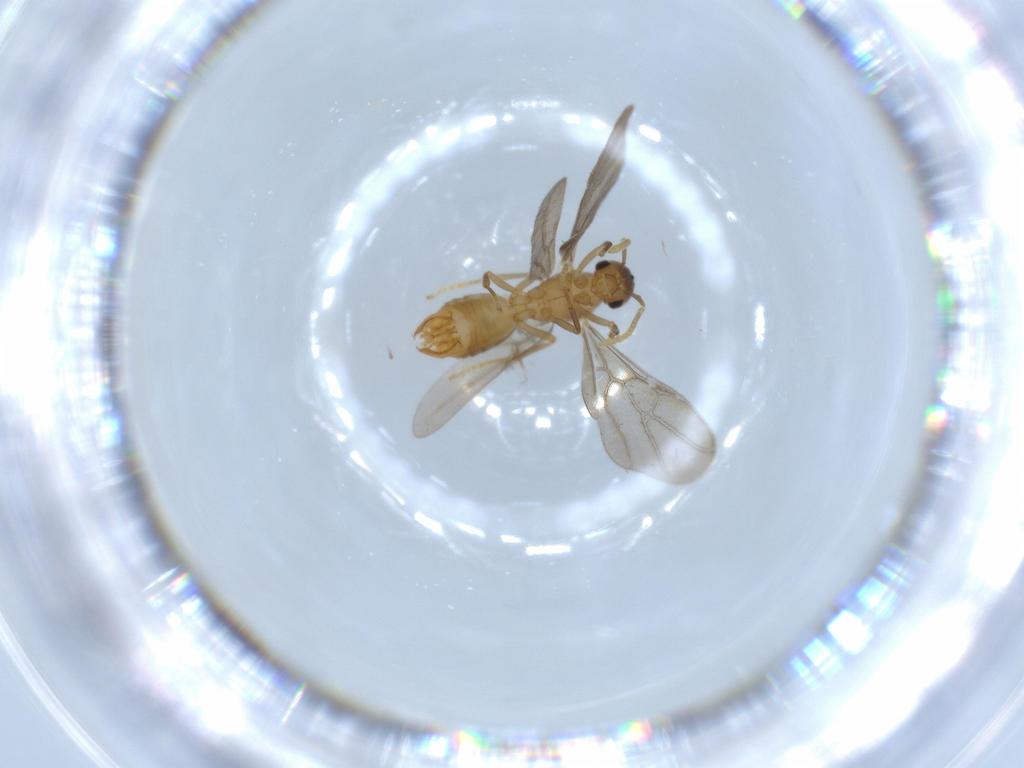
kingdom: Animalia
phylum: Arthropoda
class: Insecta
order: Hymenoptera
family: Formicidae
